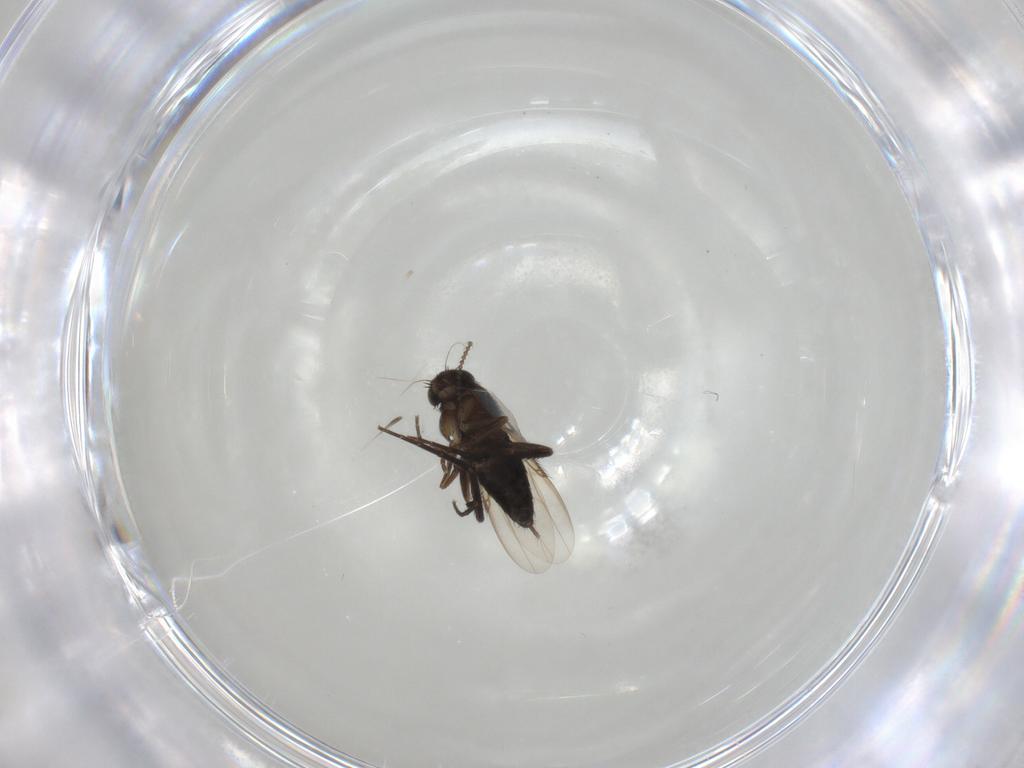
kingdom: Animalia
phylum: Arthropoda
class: Insecta
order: Diptera
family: Phoridae
